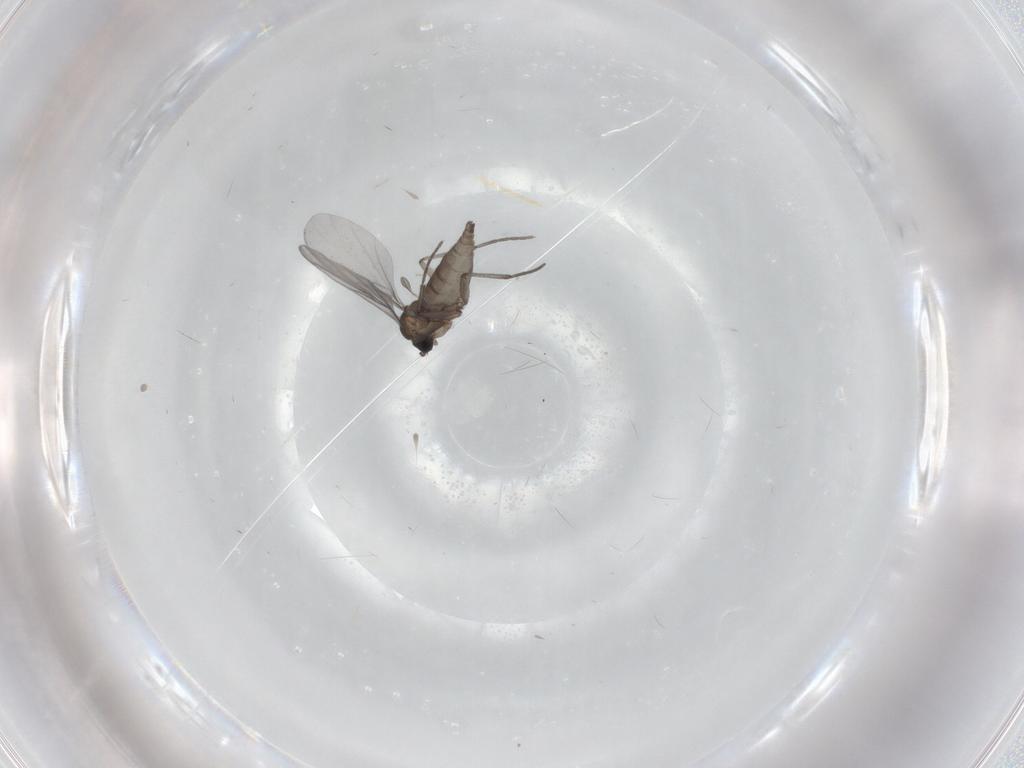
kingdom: Animalia
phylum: Arthropoda
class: Insecta
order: Diptera
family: Sciaridae
